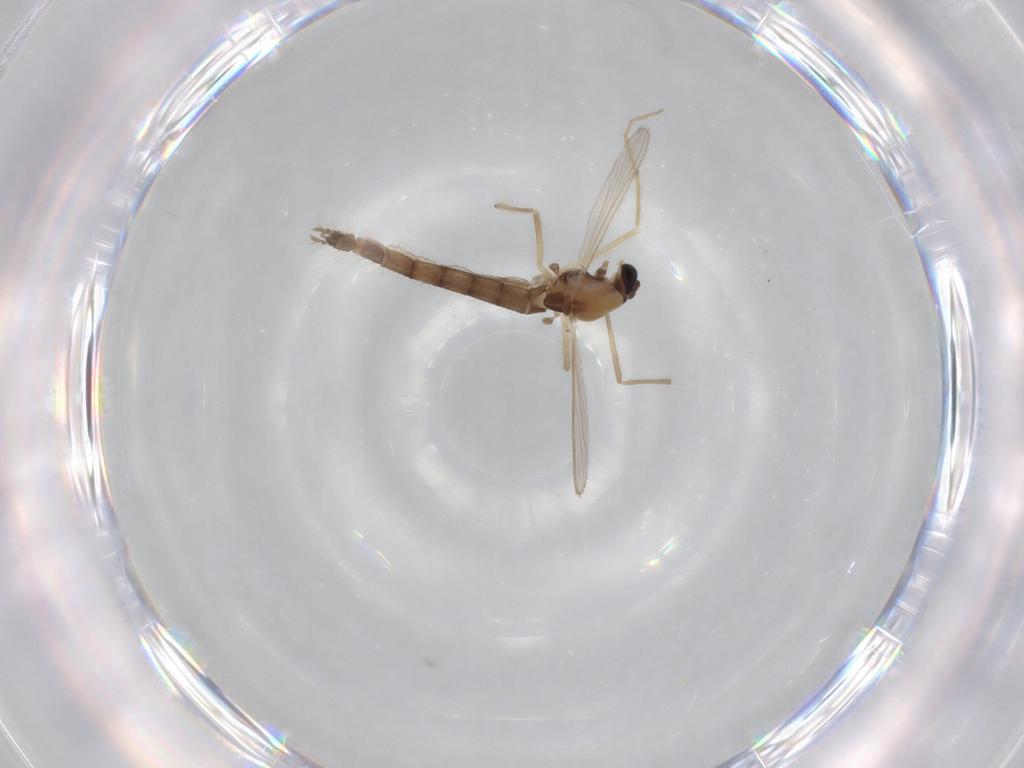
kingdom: Animalia
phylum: Arthropoda
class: Insecta
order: Diptera
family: Chironomidae
